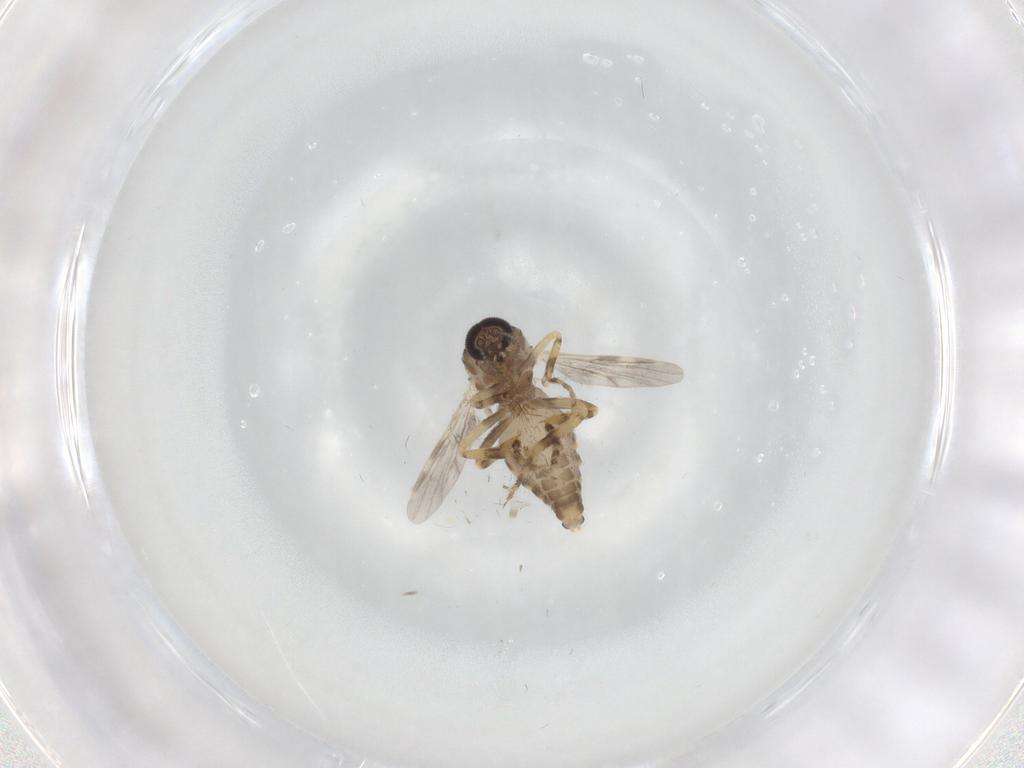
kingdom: Animalia
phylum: Arthropoda
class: Insecta
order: Diptera
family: Ceratopogonidae
